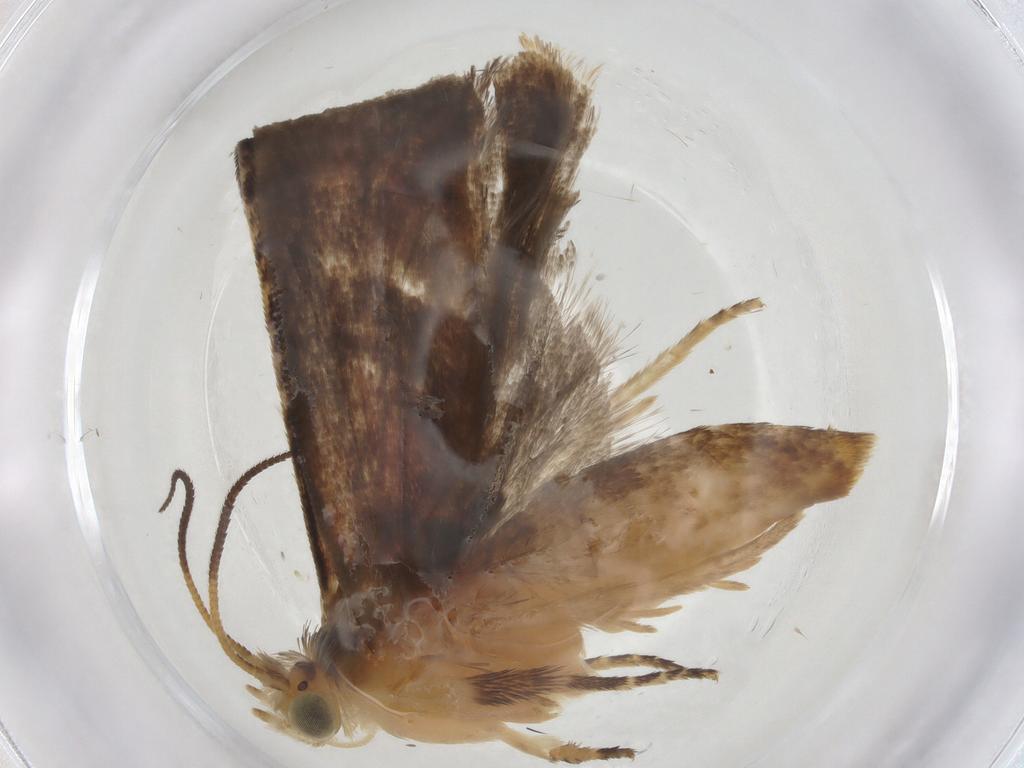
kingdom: Animalia
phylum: Arthropoda
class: Insecta
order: Lepidoptera
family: Tortricidae
